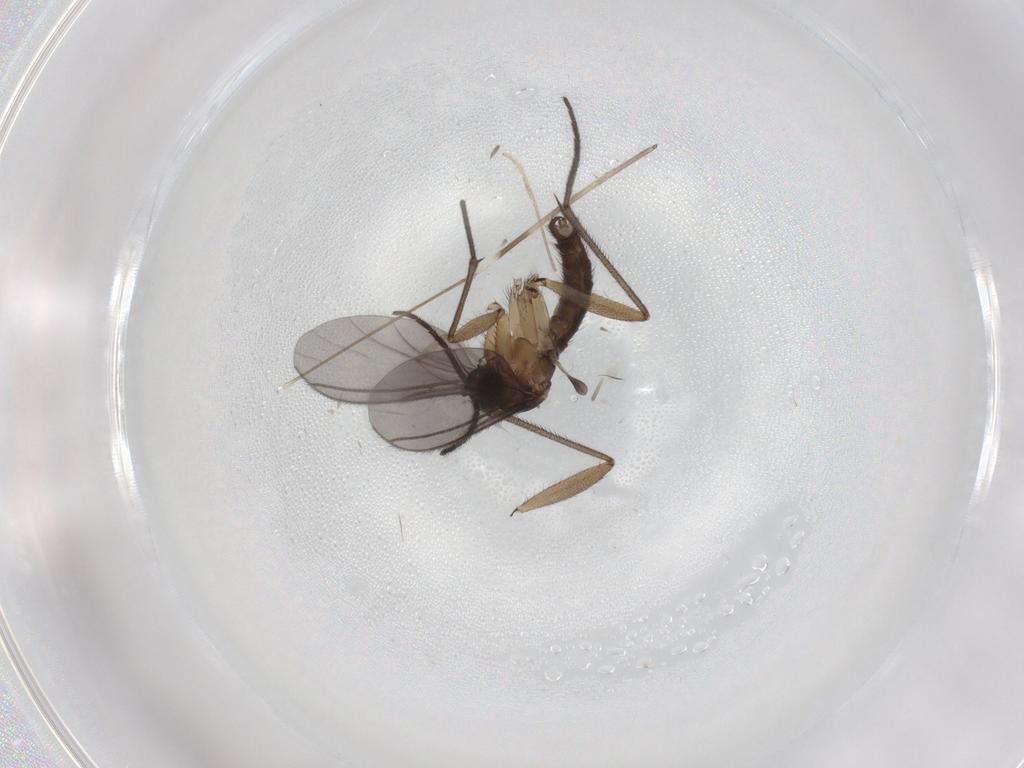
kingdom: Animalia
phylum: Arthropoda
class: Insecta
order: Diptera
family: Psychodidae
